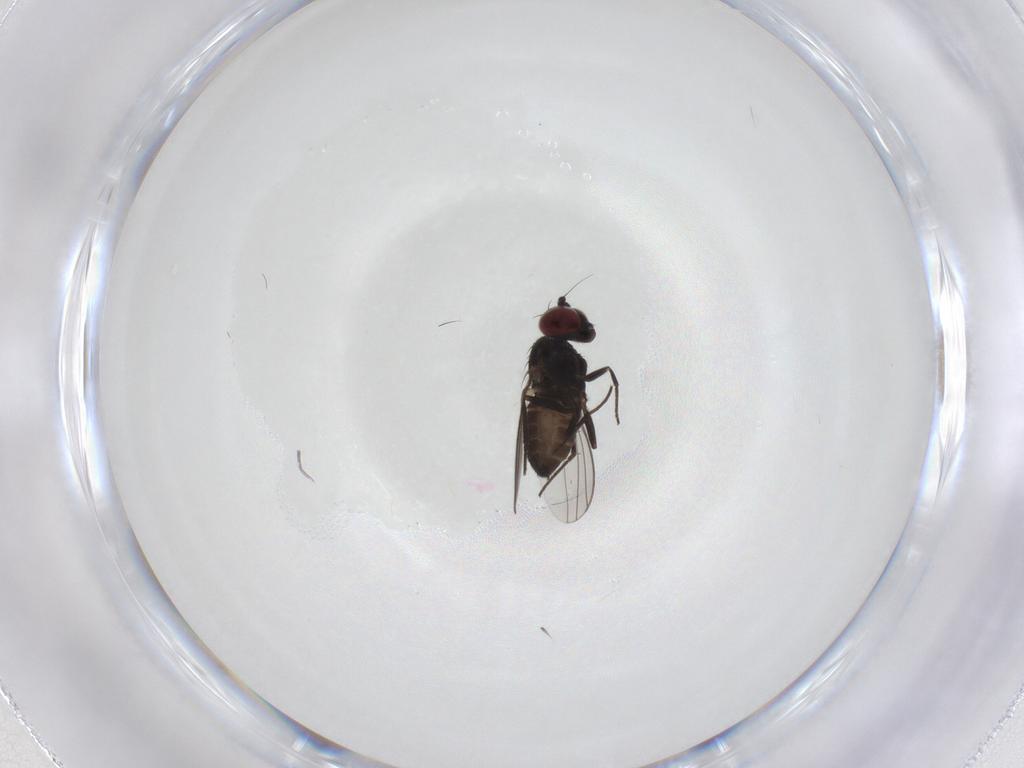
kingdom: Animalia
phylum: Arthropoda
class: Insecta
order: Diptera
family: Dolichopodidae
